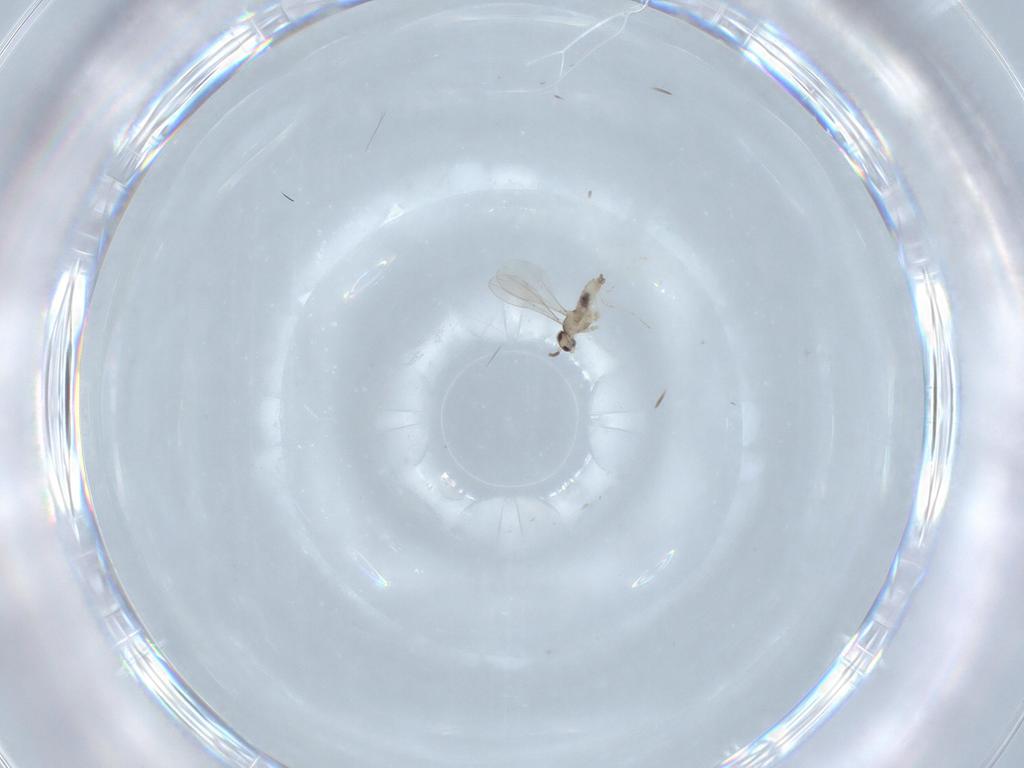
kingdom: Animalia
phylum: Arthropoda
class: Insecta
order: Diptera
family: Cecidomyiidae
